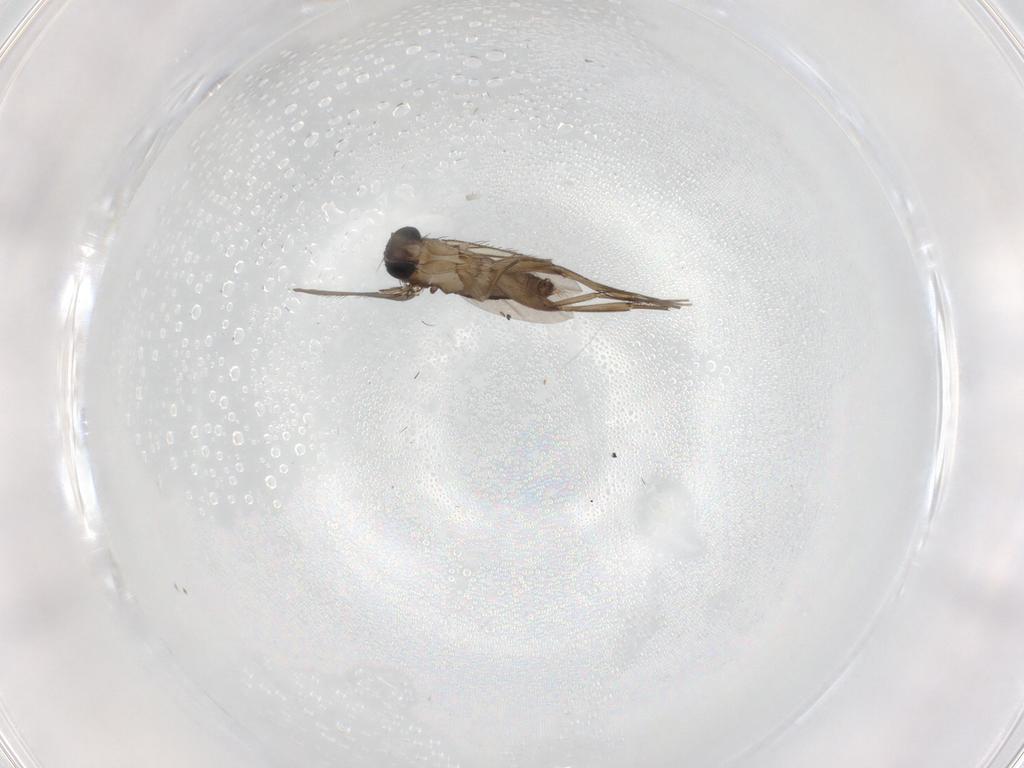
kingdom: Animalia
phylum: Arthropoda
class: Insecta
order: Diptera
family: Phoridae
